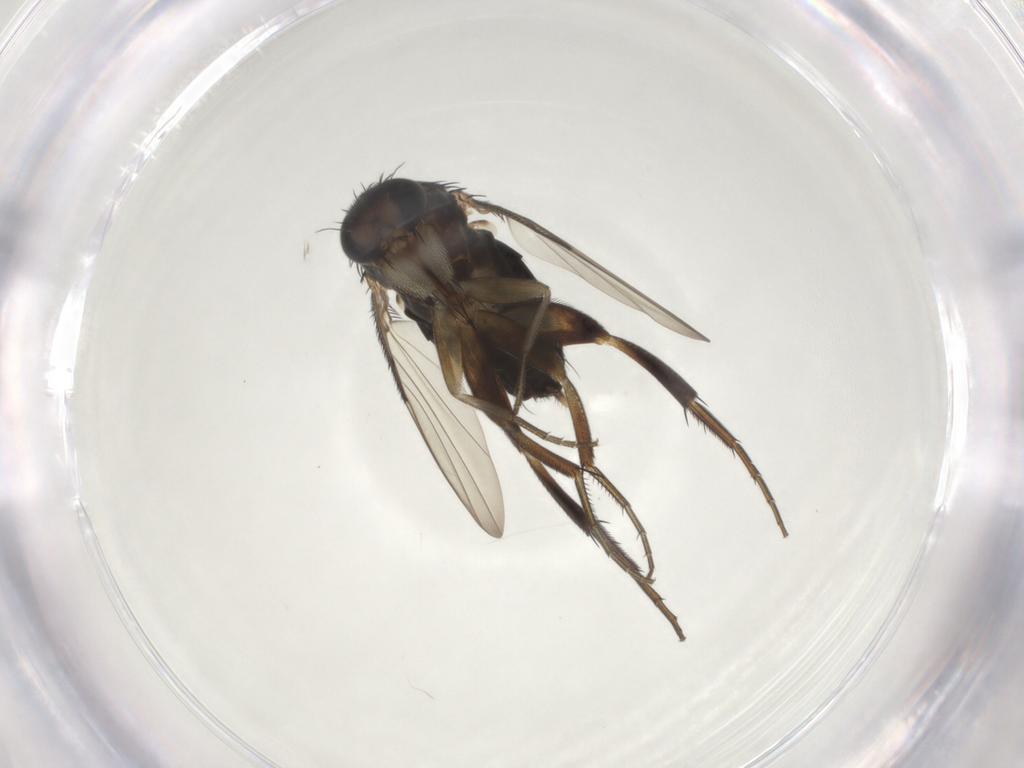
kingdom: Animalia
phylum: Arthropoda
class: Insecta
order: Diptera
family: Phoridae
